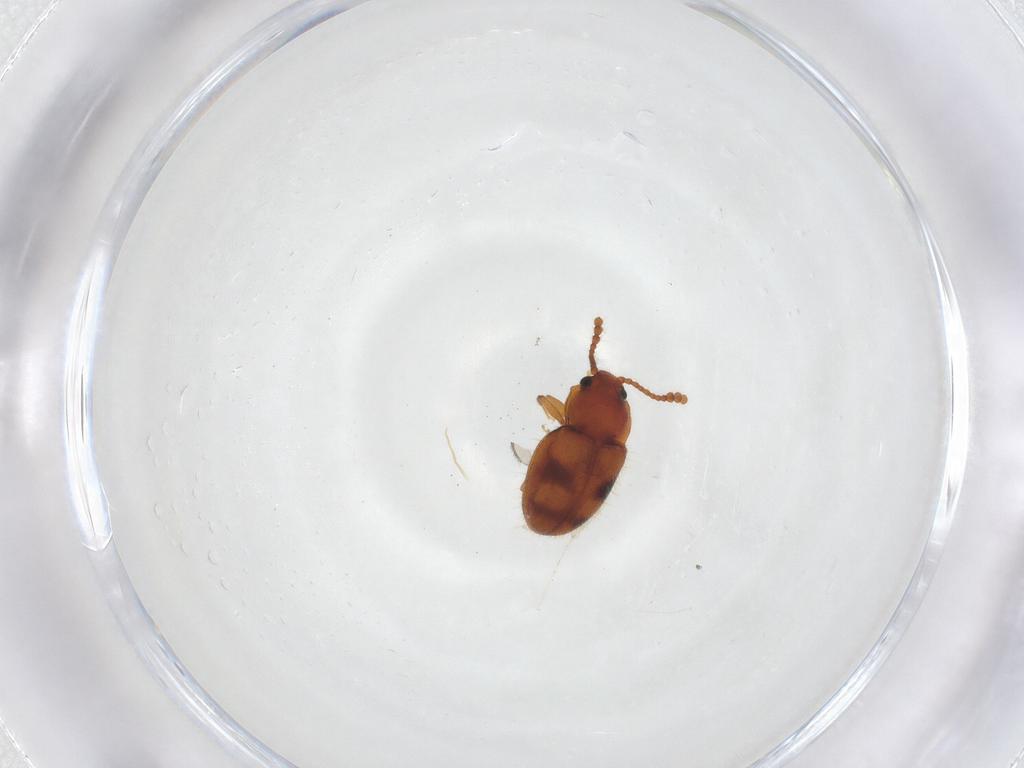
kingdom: Animalia
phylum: Arthropoda
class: Insecta
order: Coleoptera
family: Erotylidae
